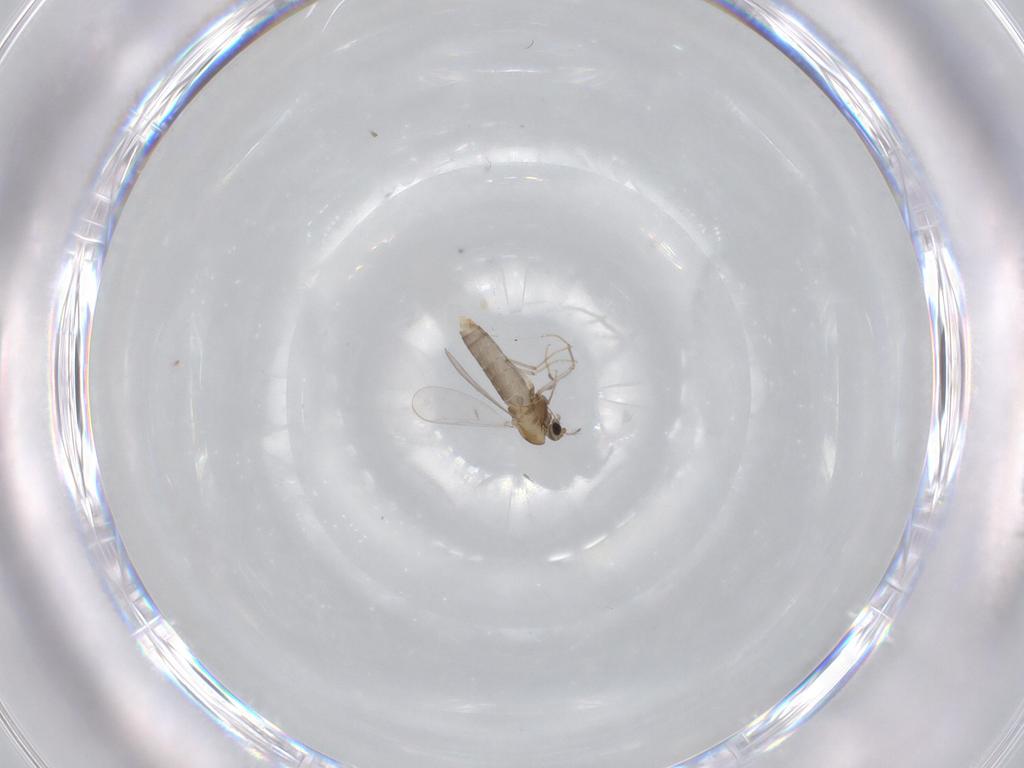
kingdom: Animalia
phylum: Arthropoda
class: Insecta
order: Diptera
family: Cecidomyiidae
